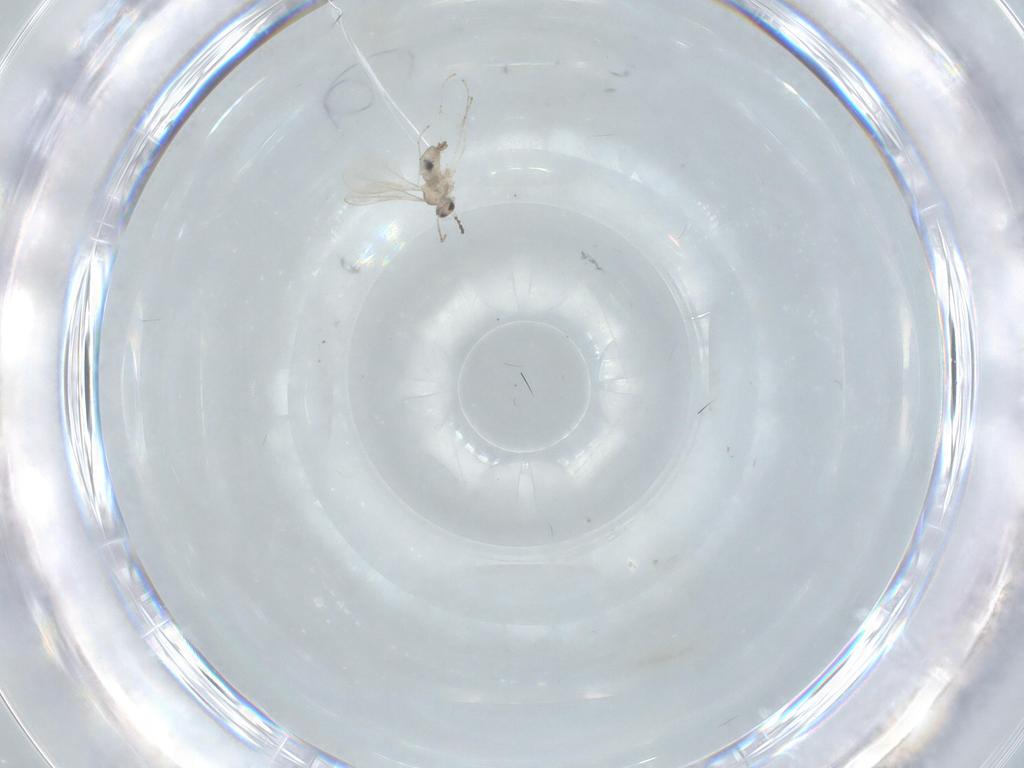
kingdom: Animalia
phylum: Arthropoda
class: Insecta
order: Diptera
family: Cecidomyiidae
